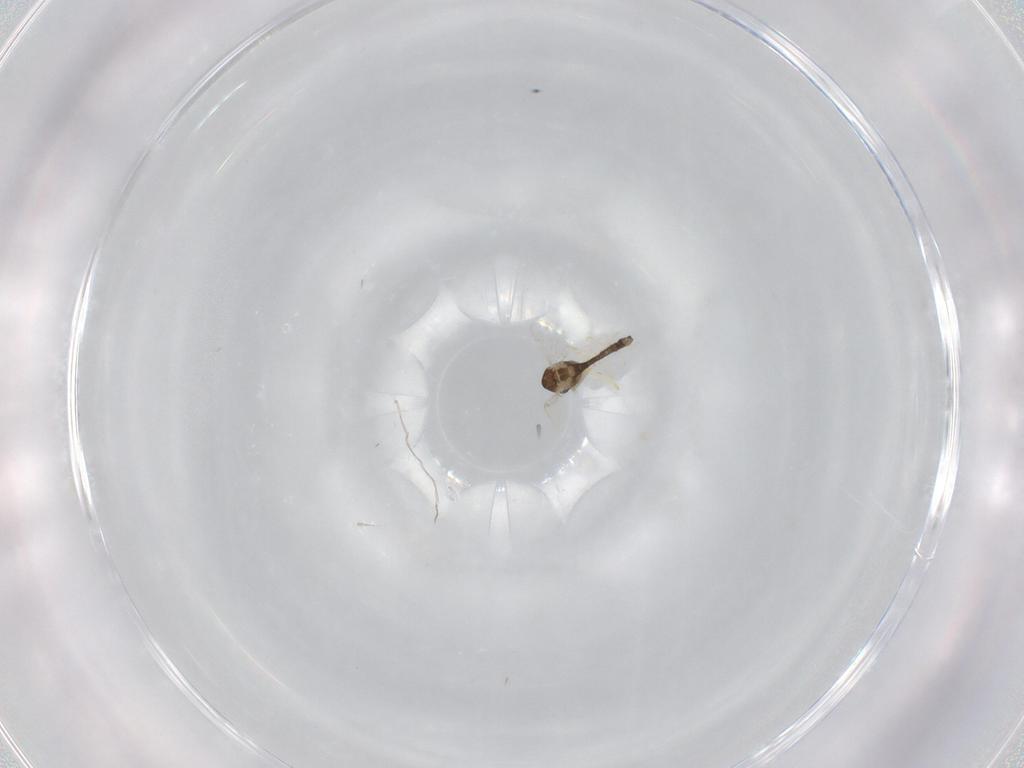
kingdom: Animalia
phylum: Arthropoda
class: Insecta
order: Diptera
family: Chironomidae
